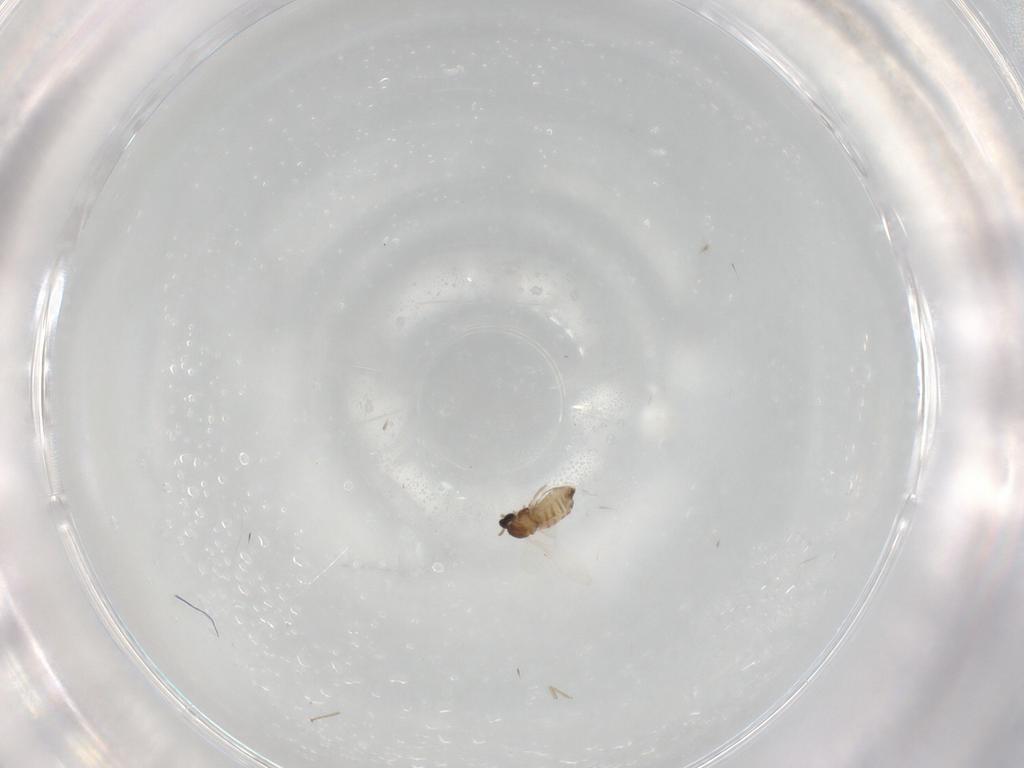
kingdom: Animalia
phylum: Arthropoda
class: Insecta
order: Diptera
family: Cecidomyiidae
